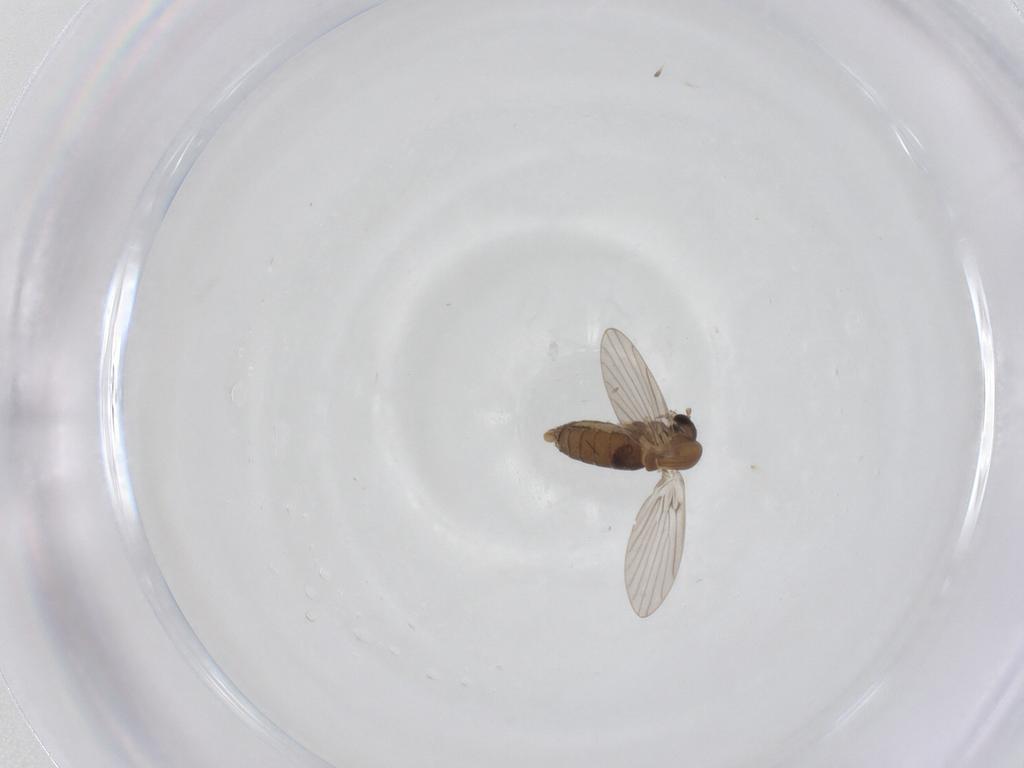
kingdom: Animalia
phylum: Arthropoda
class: Insecta
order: Diptera
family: Sciaridae
